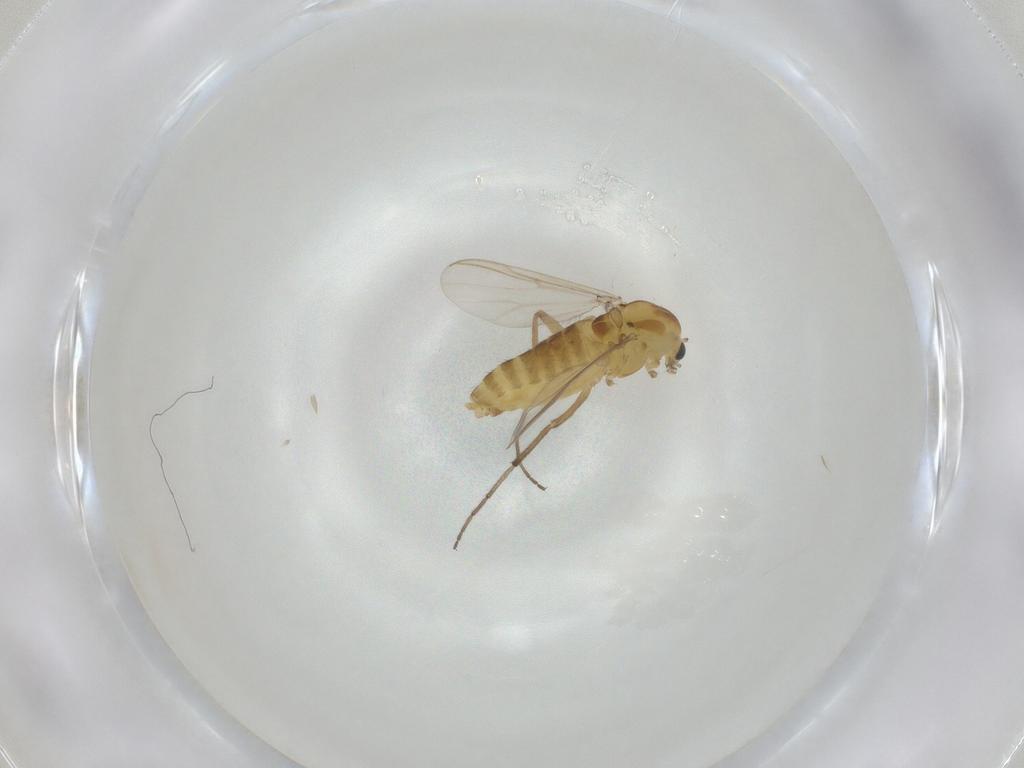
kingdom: Animalia
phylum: Arthropoda
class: Insecta
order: Diptera
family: Chironomidae
